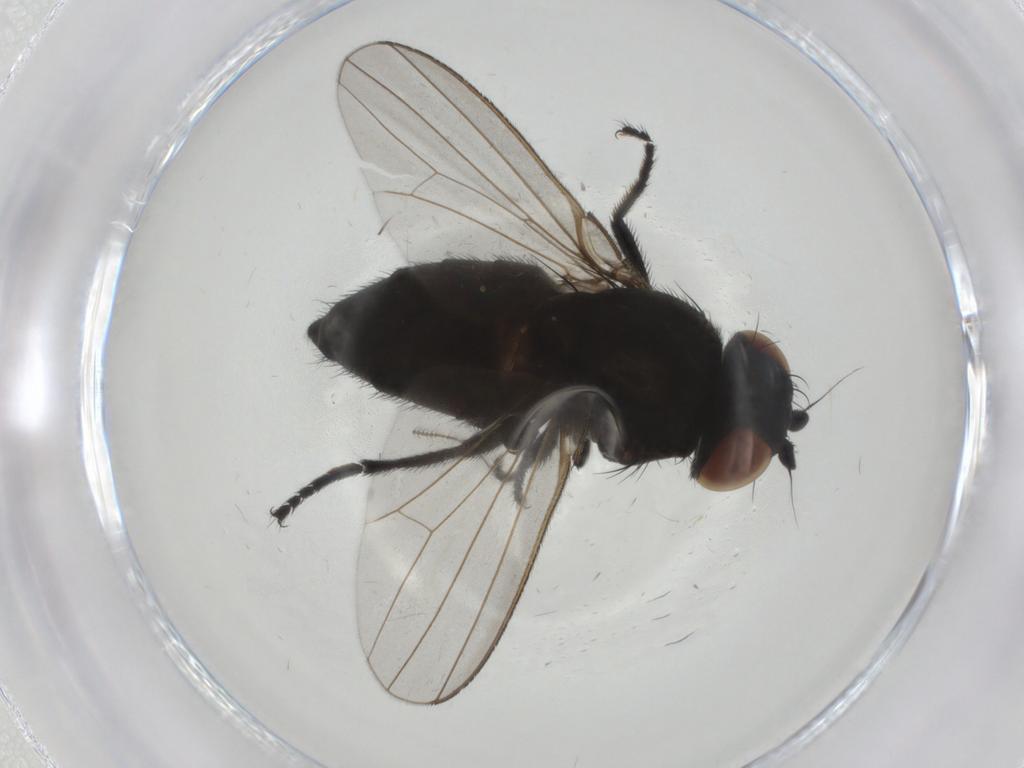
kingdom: Animalia
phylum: Arthropoda
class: Insecta
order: Diptera
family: Milichiidae
